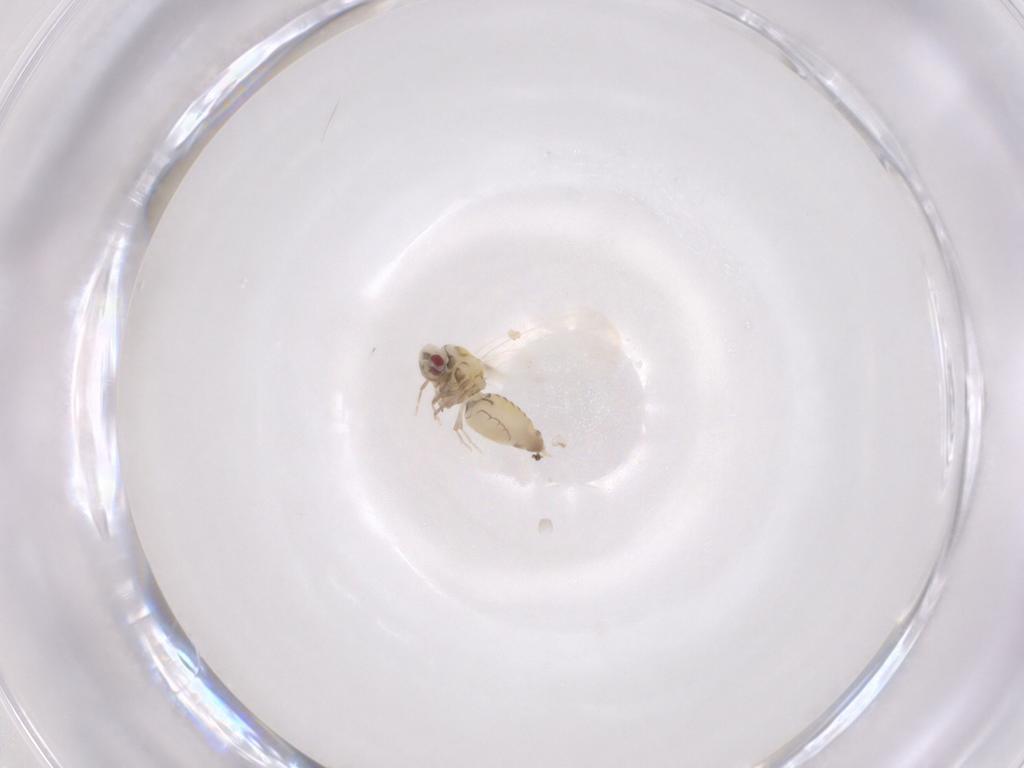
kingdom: Animalia
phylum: Arthropoda
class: Insecta
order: Hemiptera
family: Aleyrodidae
